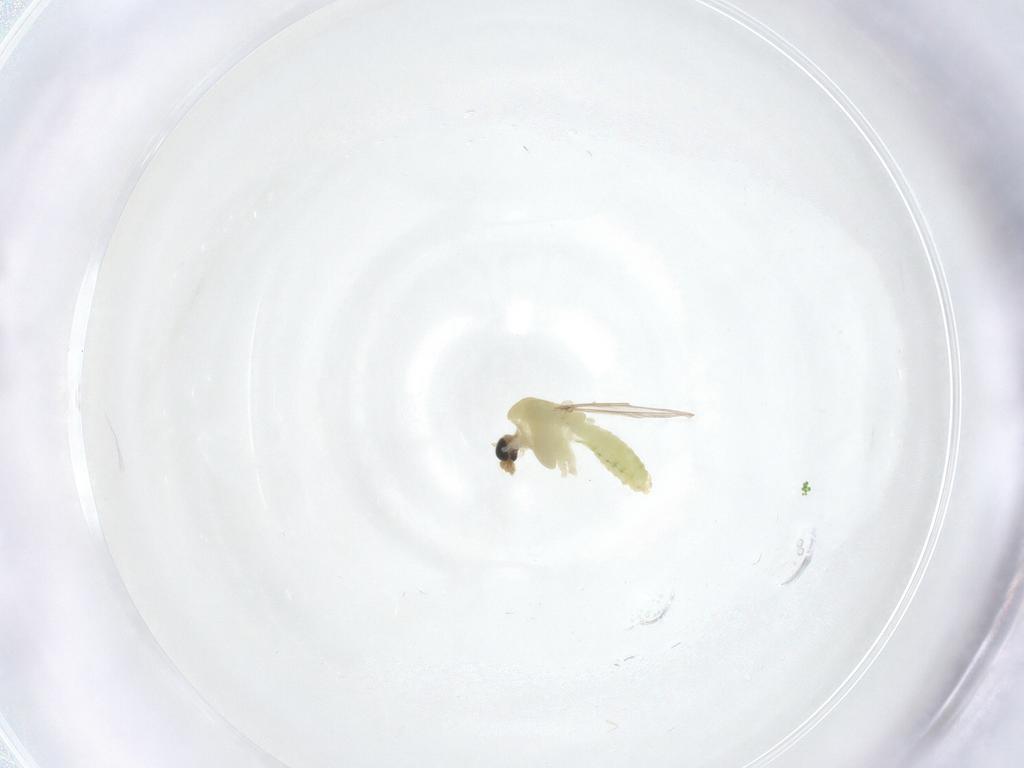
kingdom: Animalia
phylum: Arthropoda
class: Insecta
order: Diptera
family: Chironomidae
